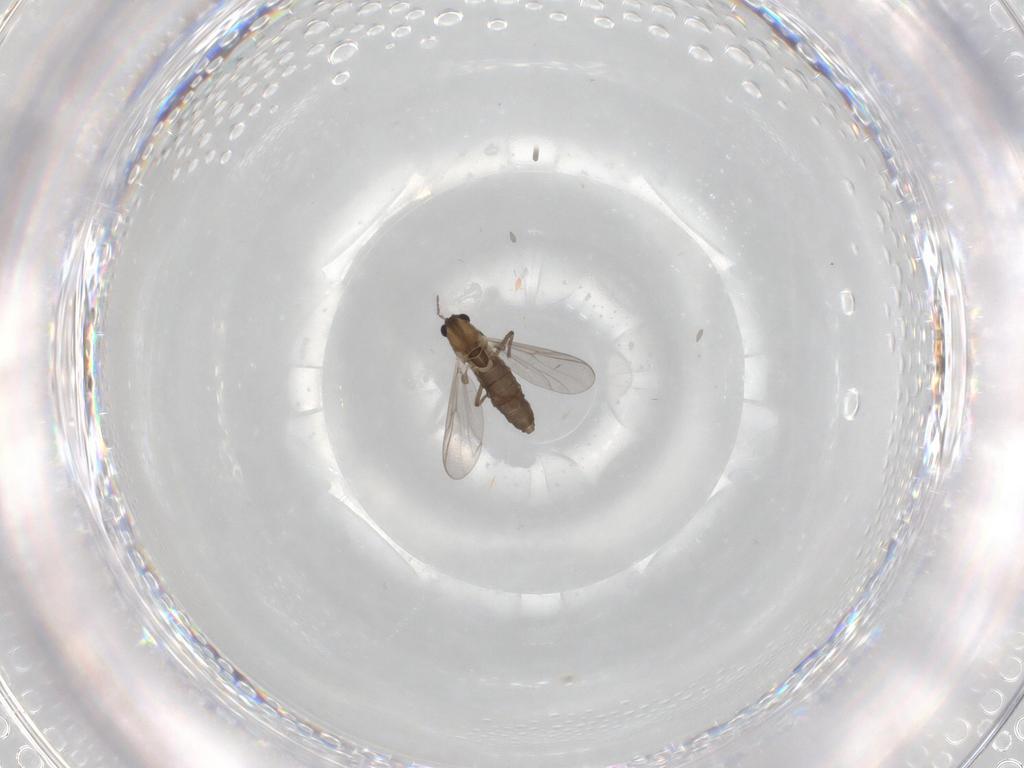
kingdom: Animalia
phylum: Arthropoda
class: Insecta
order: Diptera
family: Chironomidae
